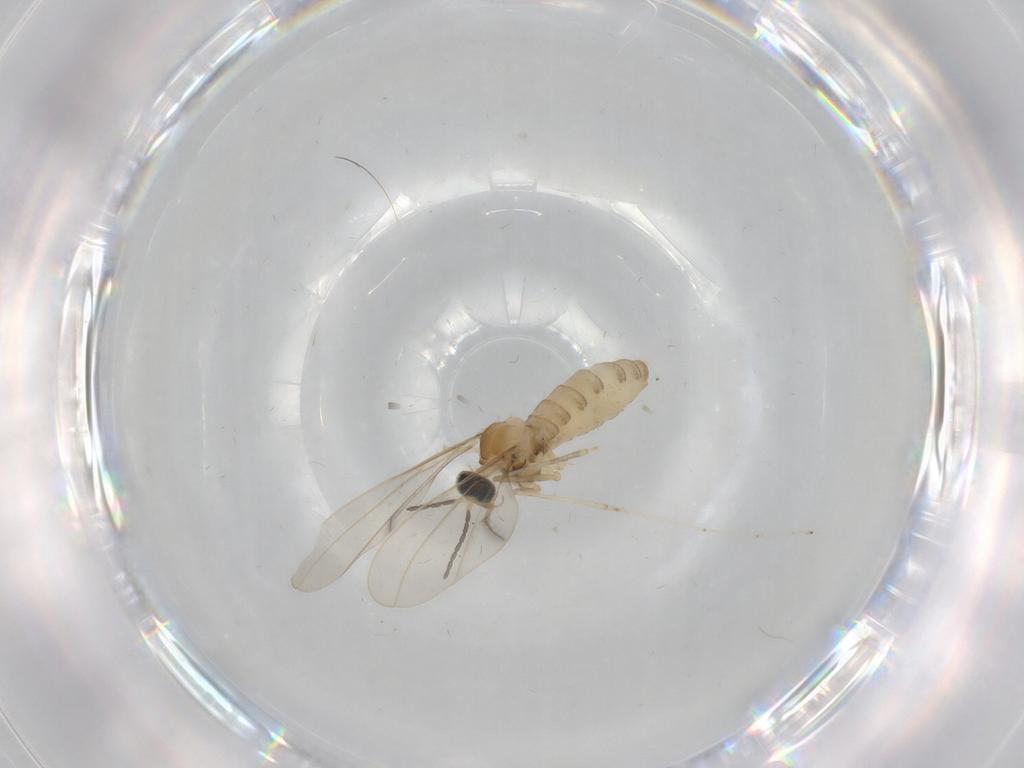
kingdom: Animalia
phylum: Arthropoda
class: Insecta
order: Diptera
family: Cecidomyiidae
